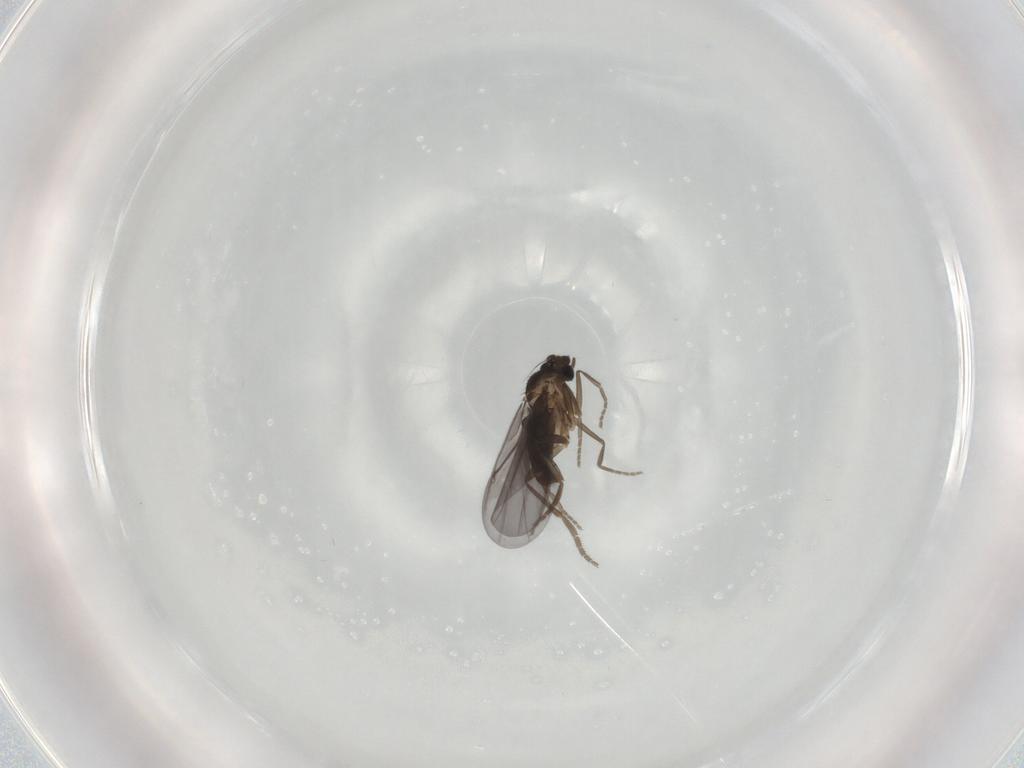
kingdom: Animalia
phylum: Arthropoda
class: Insecta
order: Diptera
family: Chironomidae
